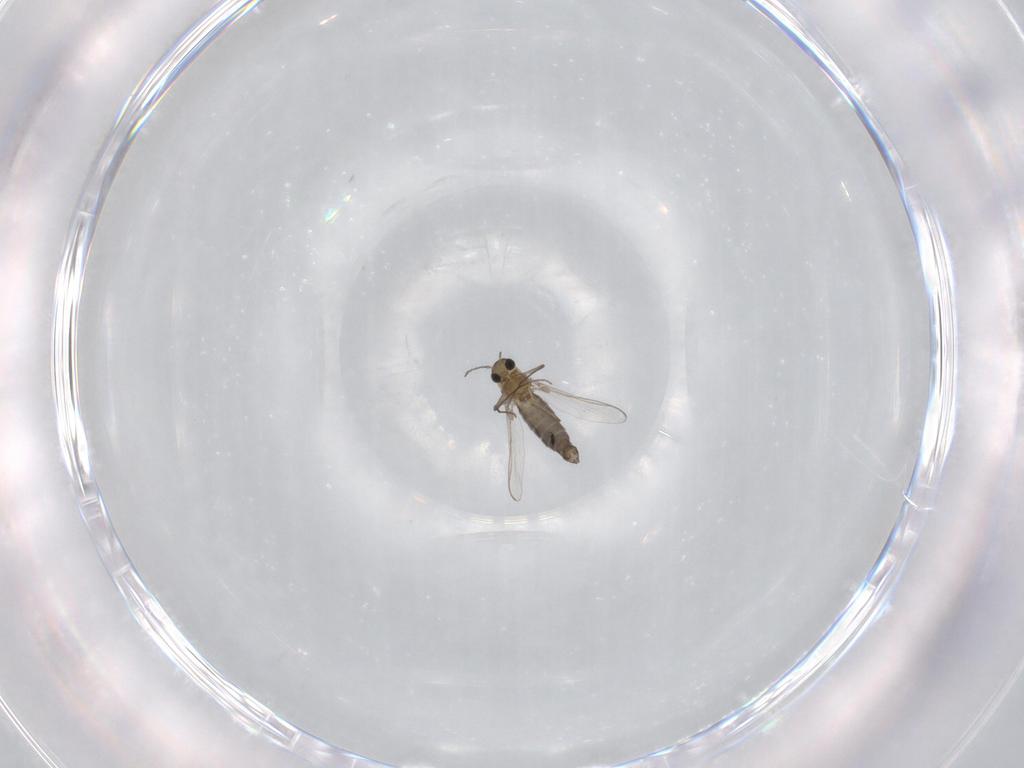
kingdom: Animalia
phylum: Arthropoda
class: Insecta
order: Diptera
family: Chironomidae
